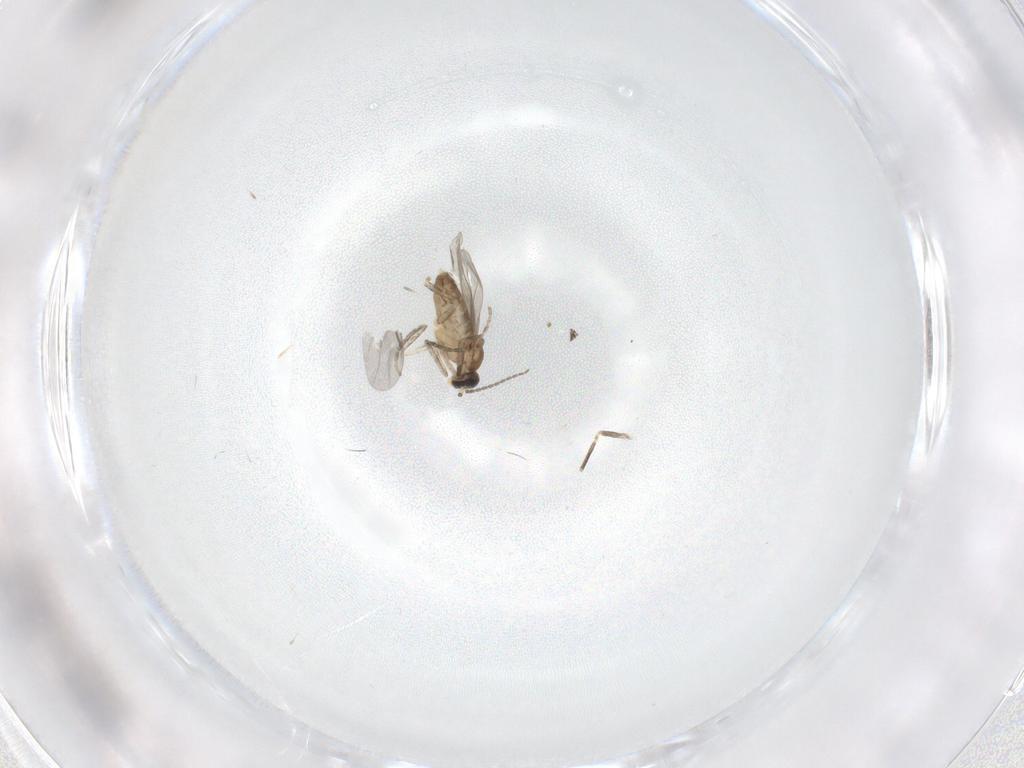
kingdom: Animalia
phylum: Arthropoda
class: Insecta
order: Diptera
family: Cecidomyiidae
